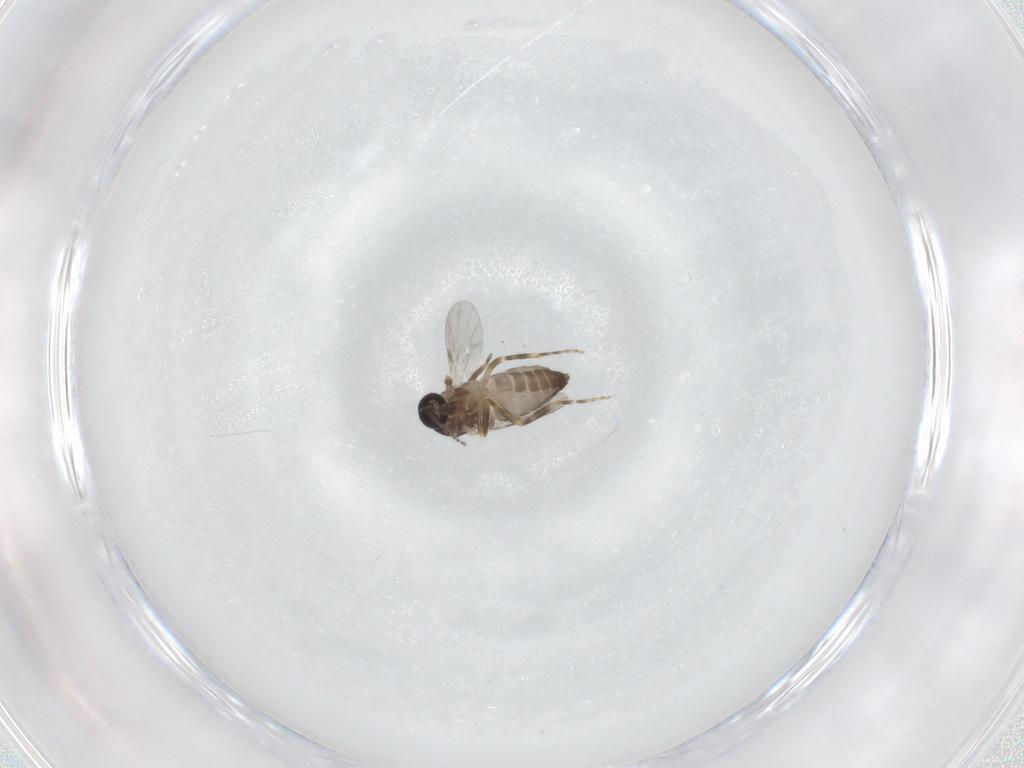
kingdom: Animalia
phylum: Arthropoda
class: Insecta
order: Diptera
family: Ceratopogonidae
